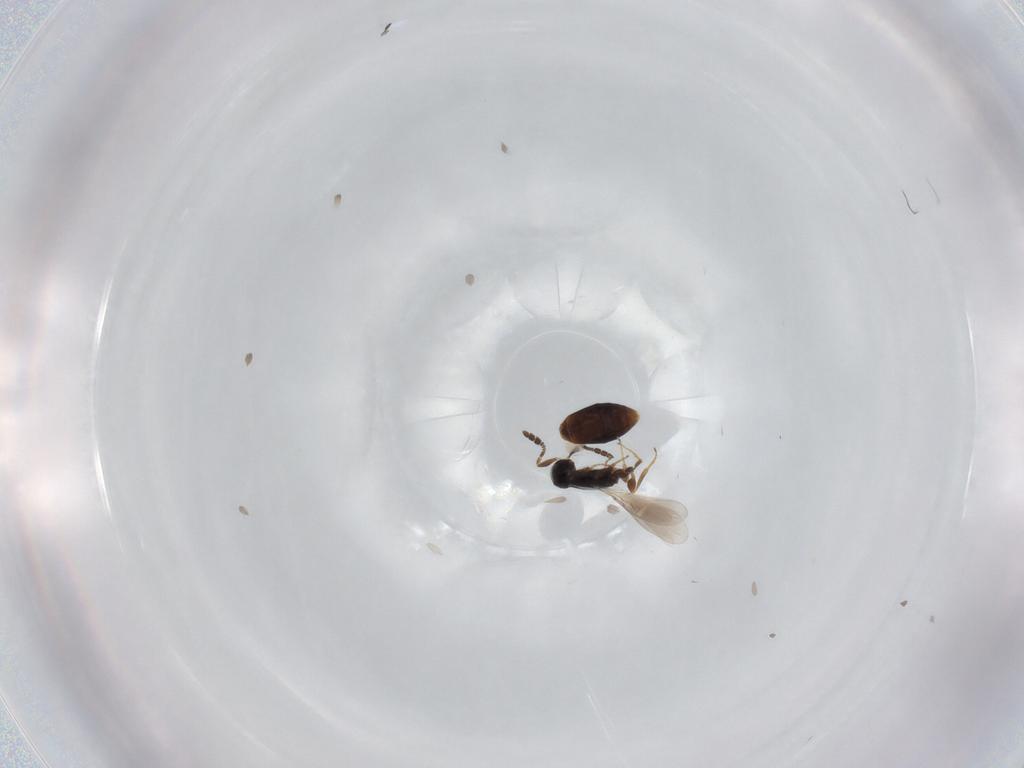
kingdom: Animalia
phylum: Arthropoda
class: Insecta
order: Hymenoptera
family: Platygastridae
